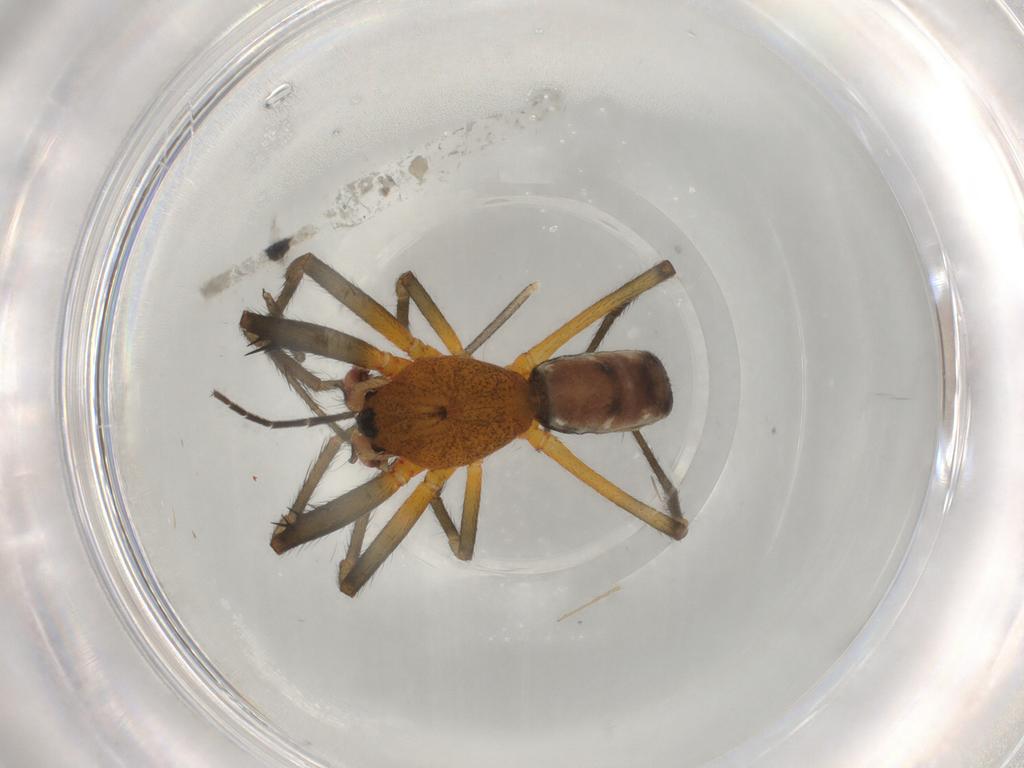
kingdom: Animalia
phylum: Arthropoda
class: Arachnida
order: Araneae
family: Araneidae
